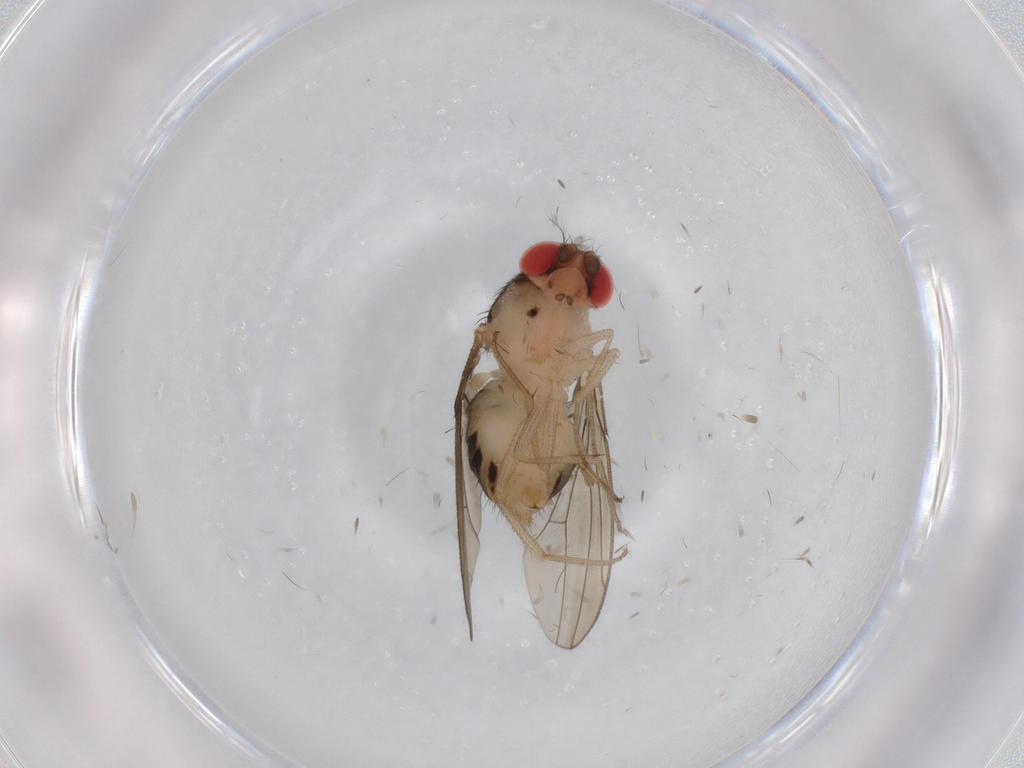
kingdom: Animalia
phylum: Arthropoda
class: Insecta
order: Diptera
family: Drosophilidae
